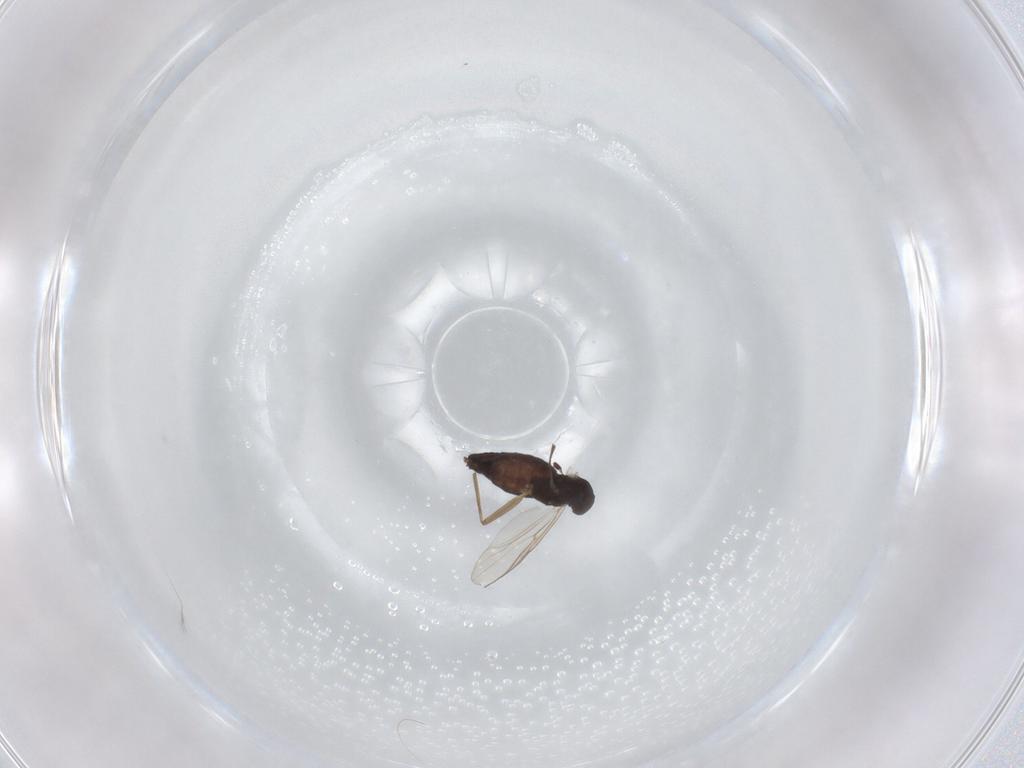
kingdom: Animalia
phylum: Arthropoda
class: Insecta
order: Diptera
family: Chironomidae
